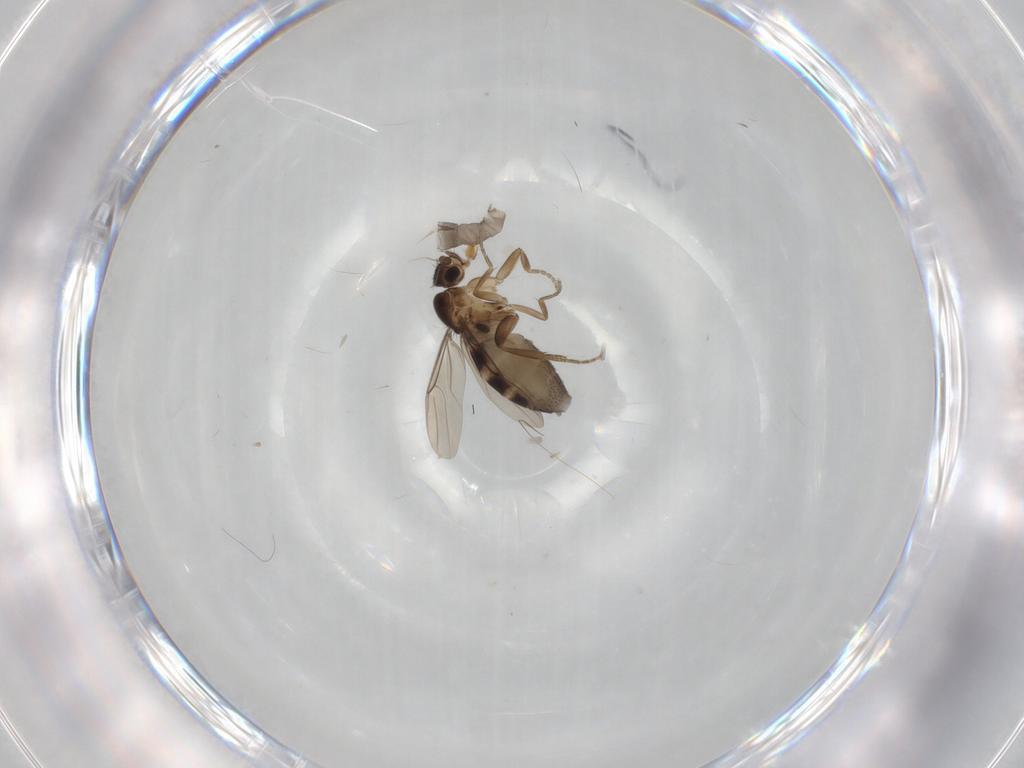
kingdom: Animalia
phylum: Arthropoda
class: Insecta
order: Diptera
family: Phoridae
